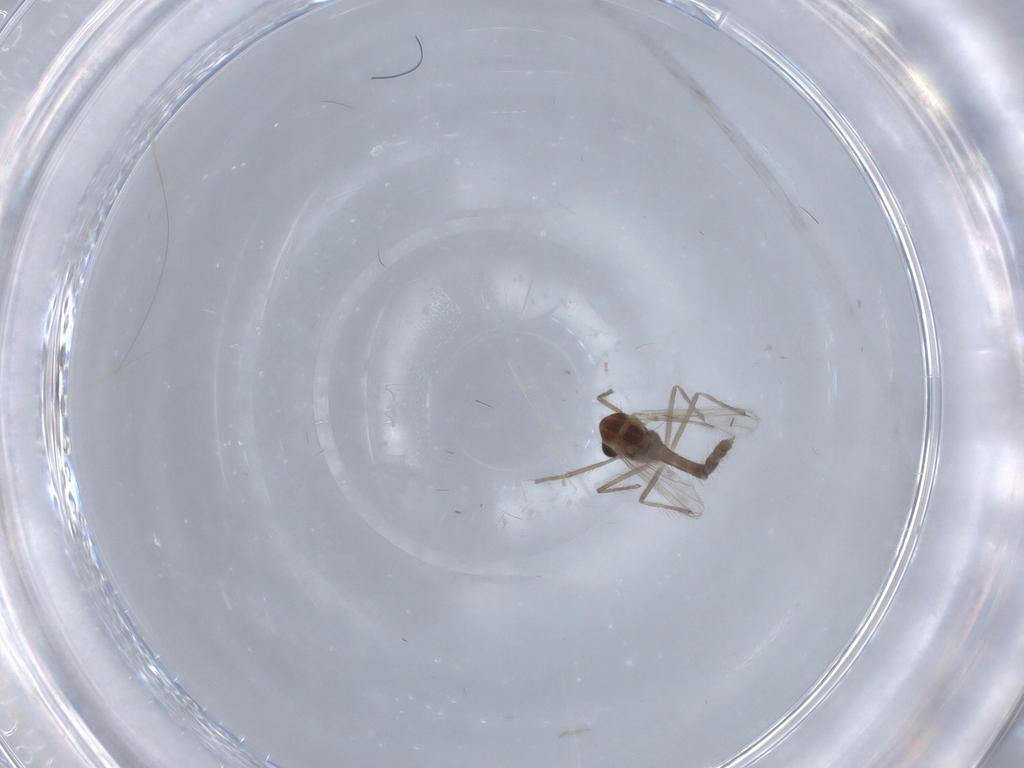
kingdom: Animalia
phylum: Arthropoda
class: Insecta
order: Diptera
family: Chironomidae
